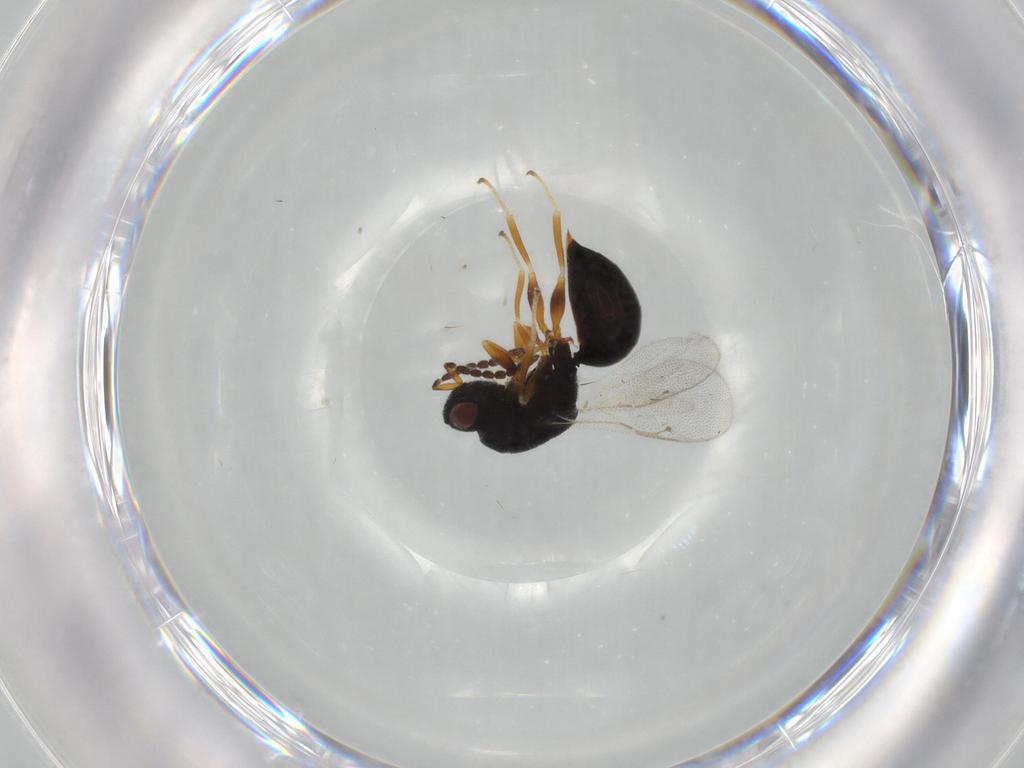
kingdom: Animalia
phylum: Arthropoda
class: Insecta
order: Hymenoptera
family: Eurytomidae
